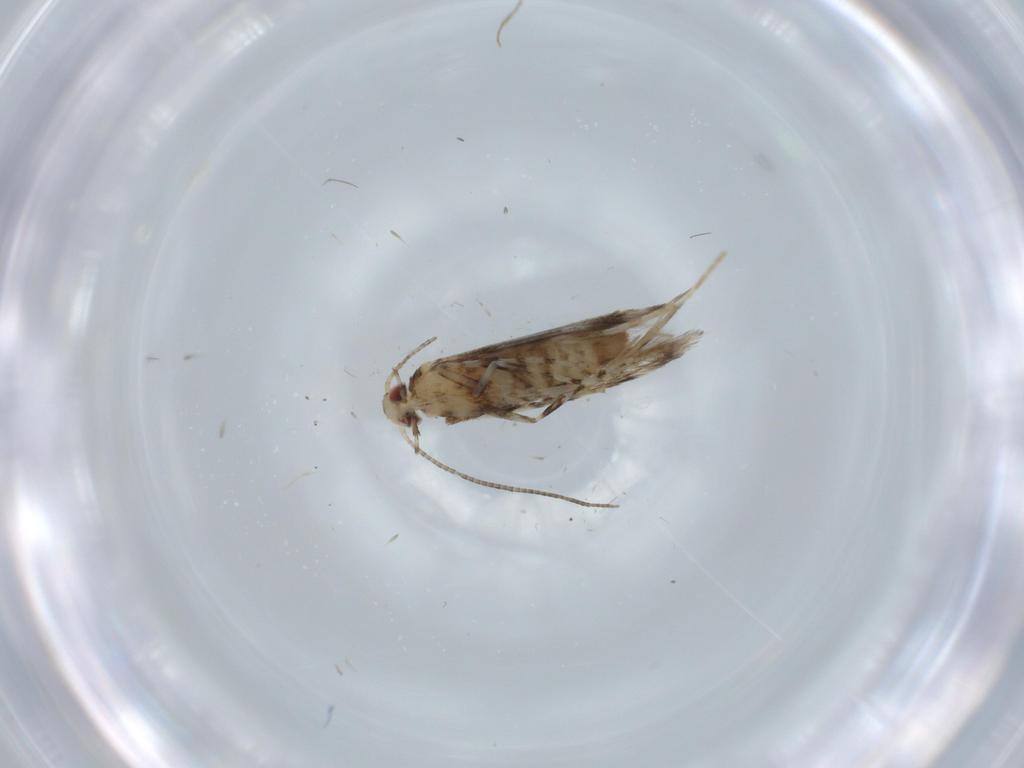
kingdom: Animalia
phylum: Arthropoda
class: Insecta
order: Lepidoptera
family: Gracillariidae
